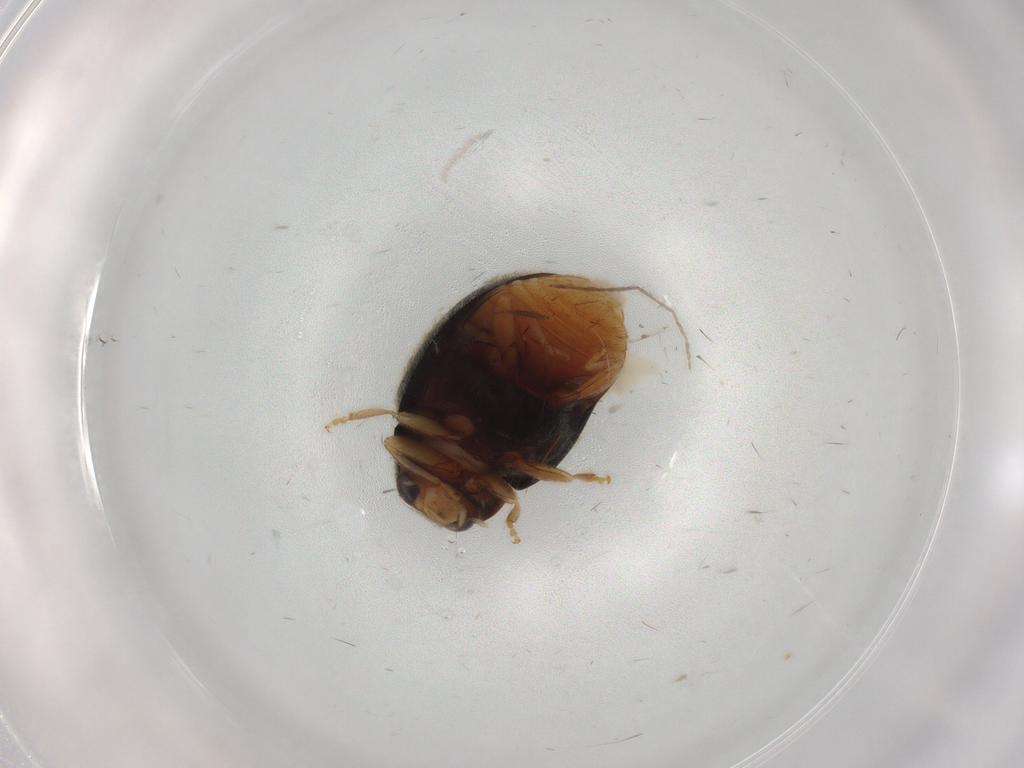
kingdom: Animalia
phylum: Arthropoda
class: Insecta
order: Coleoptera
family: Coccinellidae
